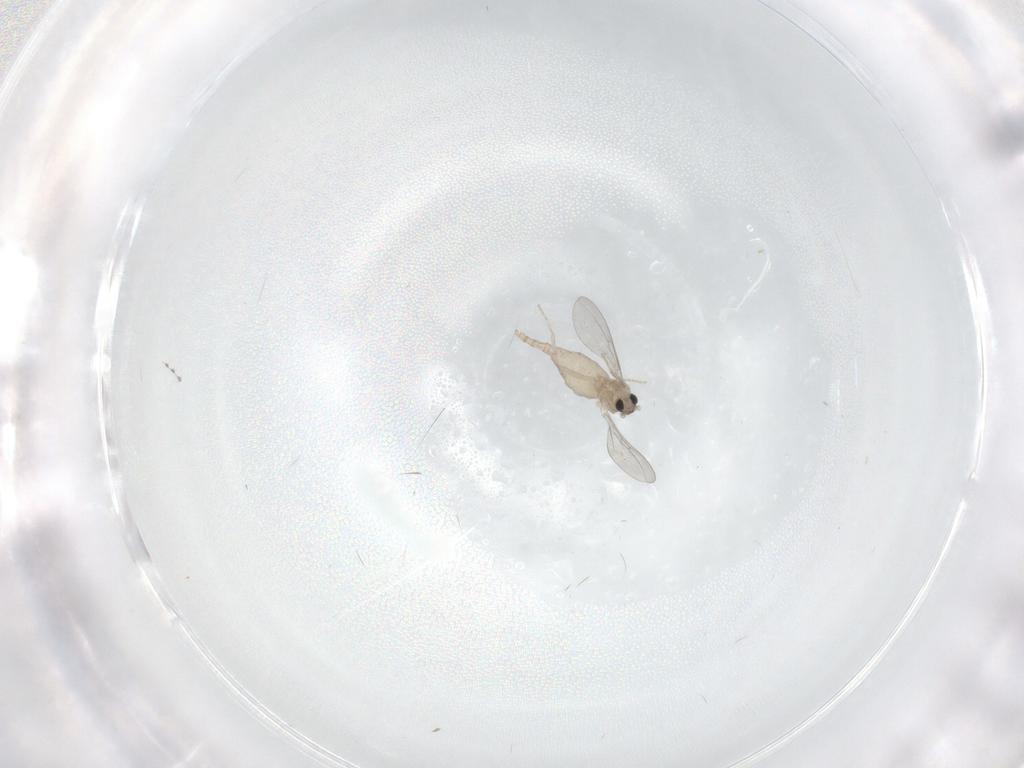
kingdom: Animalia
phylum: Arthropoda
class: Insecta
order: Diptera
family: Cecidomyiidae
